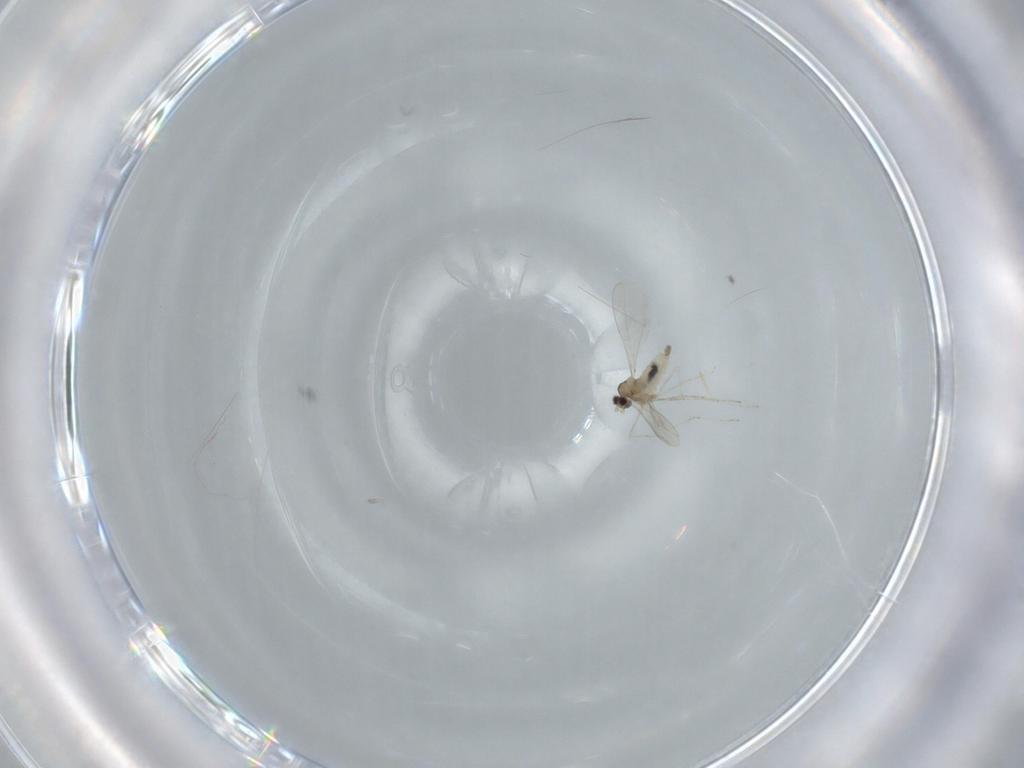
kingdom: Animalia
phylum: Arthropoda
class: Insecta
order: Diptera
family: Cecidomyiidae
